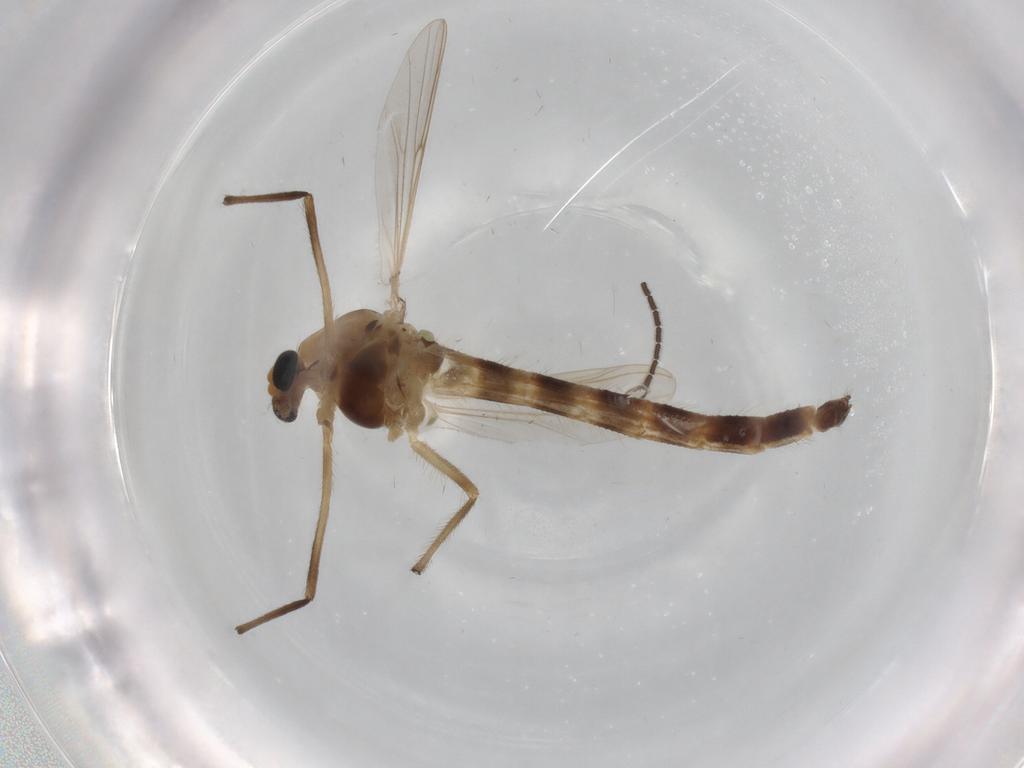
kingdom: Animalia
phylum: Arthropoda
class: Insecta
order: Diptera
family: Chironomidae
